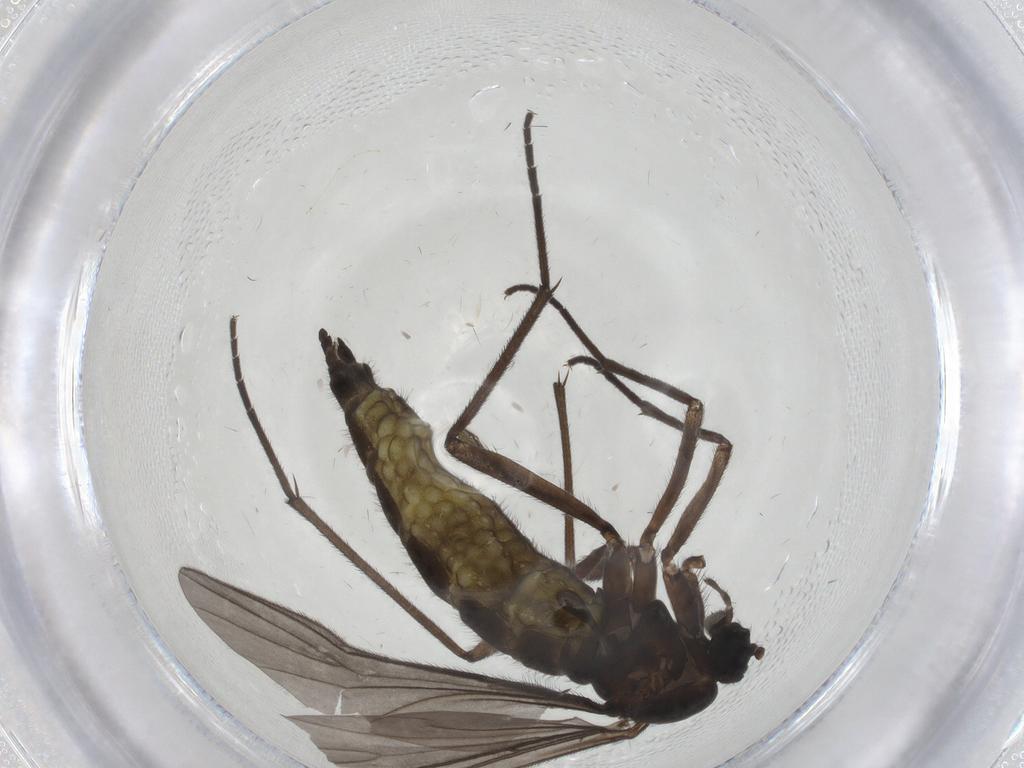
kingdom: Animalia
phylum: Arthropoda
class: Insecta
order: Diptera
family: Sciaridae
